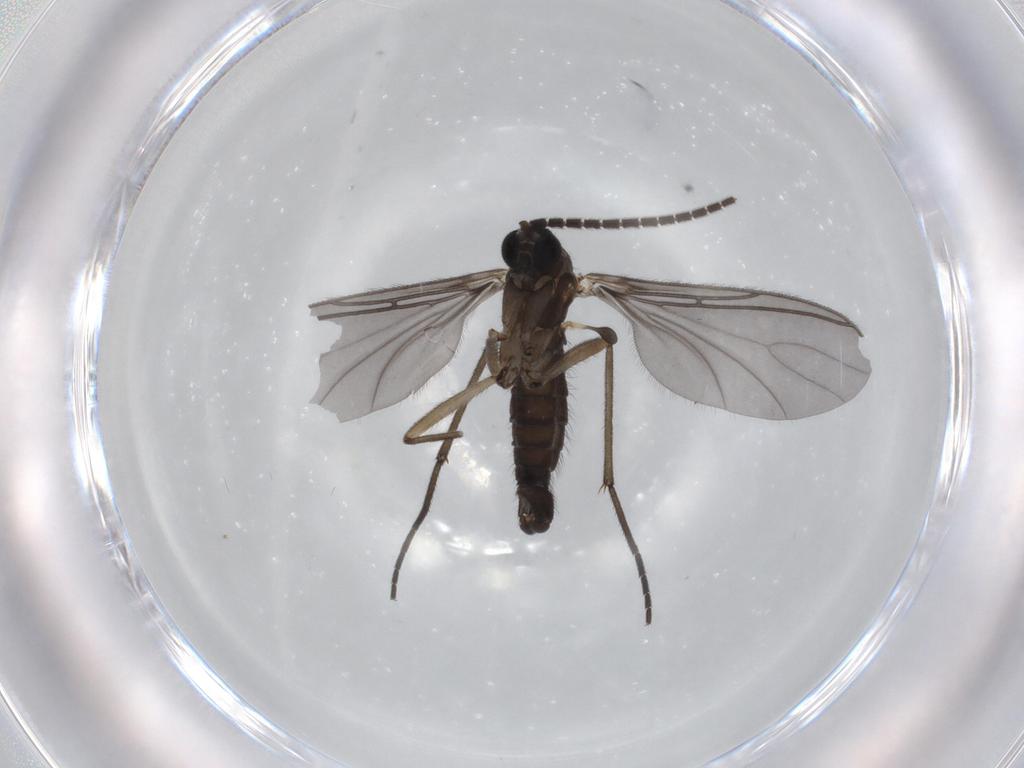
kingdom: Animalia
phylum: Arthropoda
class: Insecta
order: Diptera
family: Sciaridae
